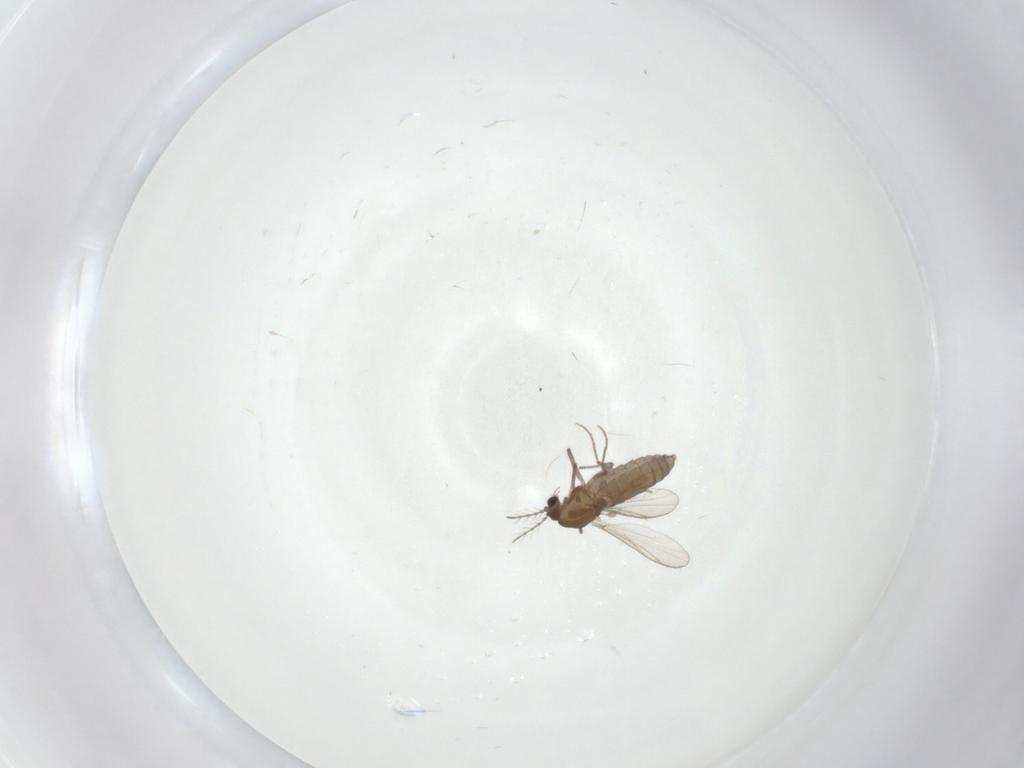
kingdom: Animalia
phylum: Arthropoda
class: Insecta
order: Diptera
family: Chironomidae
